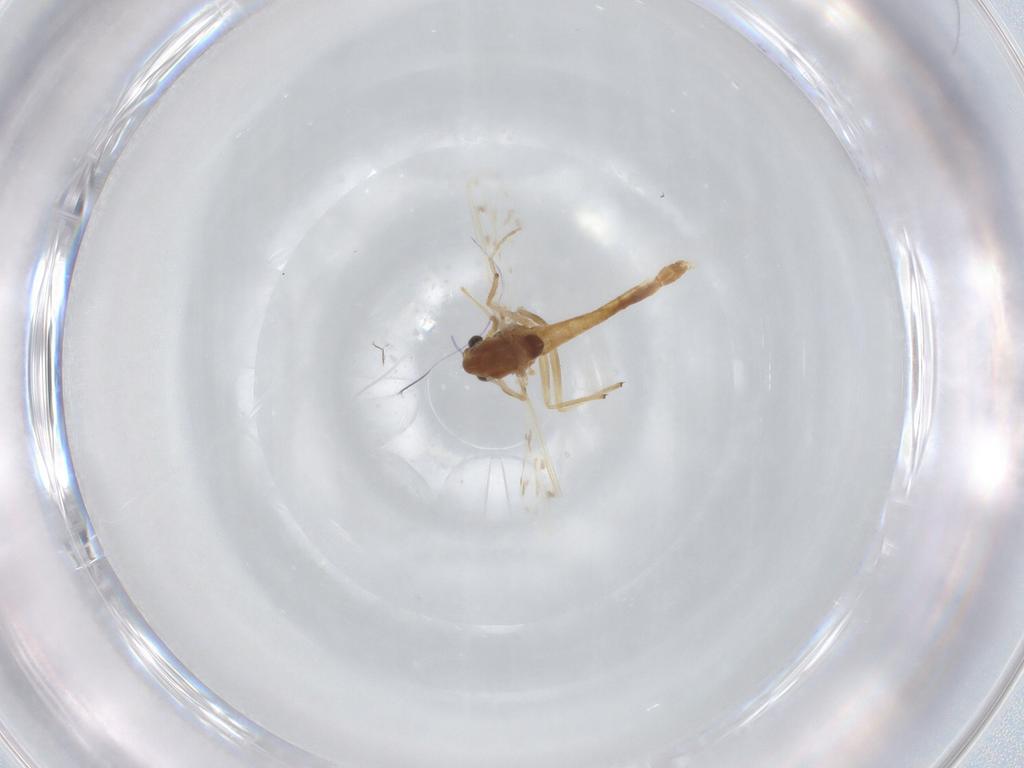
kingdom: Animalia
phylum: Arthropoda
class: Insecta
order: Diptera
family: Chironomidae
